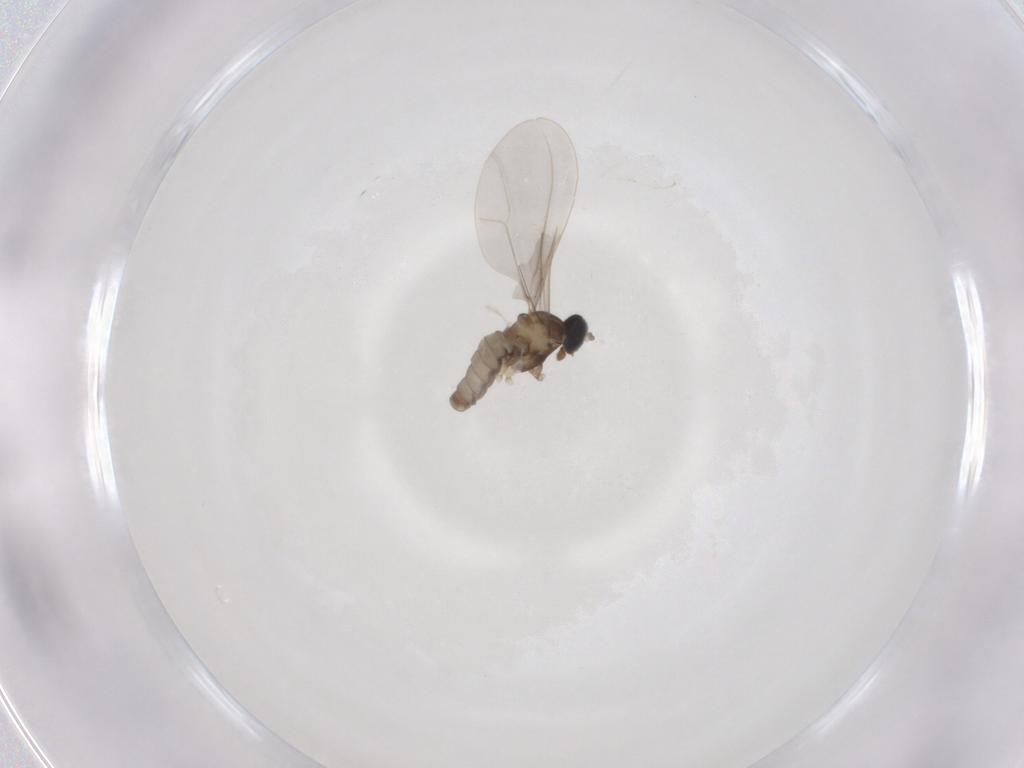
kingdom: Animalia
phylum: Arthropoda
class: Insecta
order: Diptera
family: Cecidomyiidae
